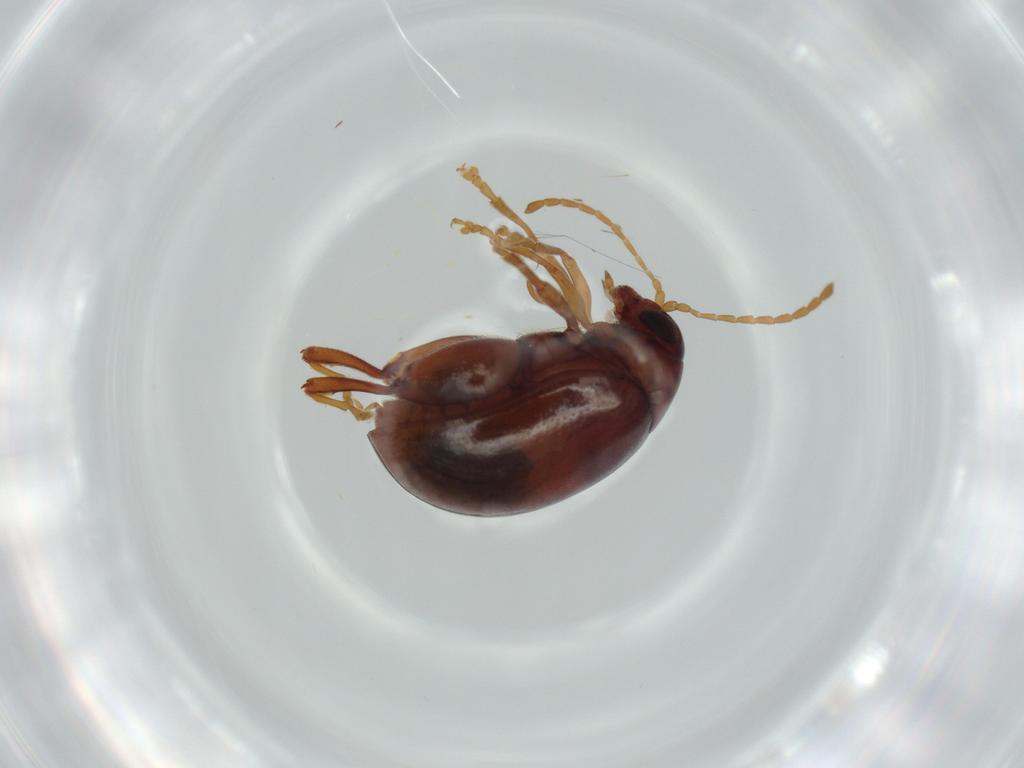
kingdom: Animalia
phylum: Arthropoda
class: Insecta
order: Coleoptera
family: Chrysomelidae
